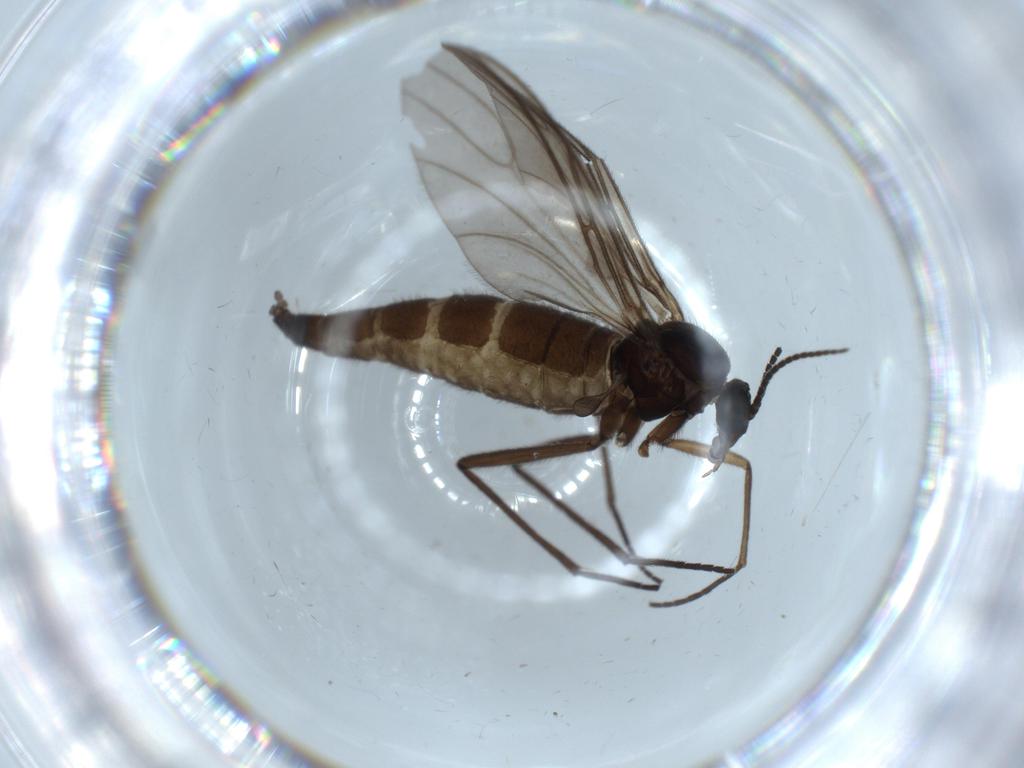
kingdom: Animalia
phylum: Arthropoda
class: Insecta
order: Diptera
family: Sciaridae
